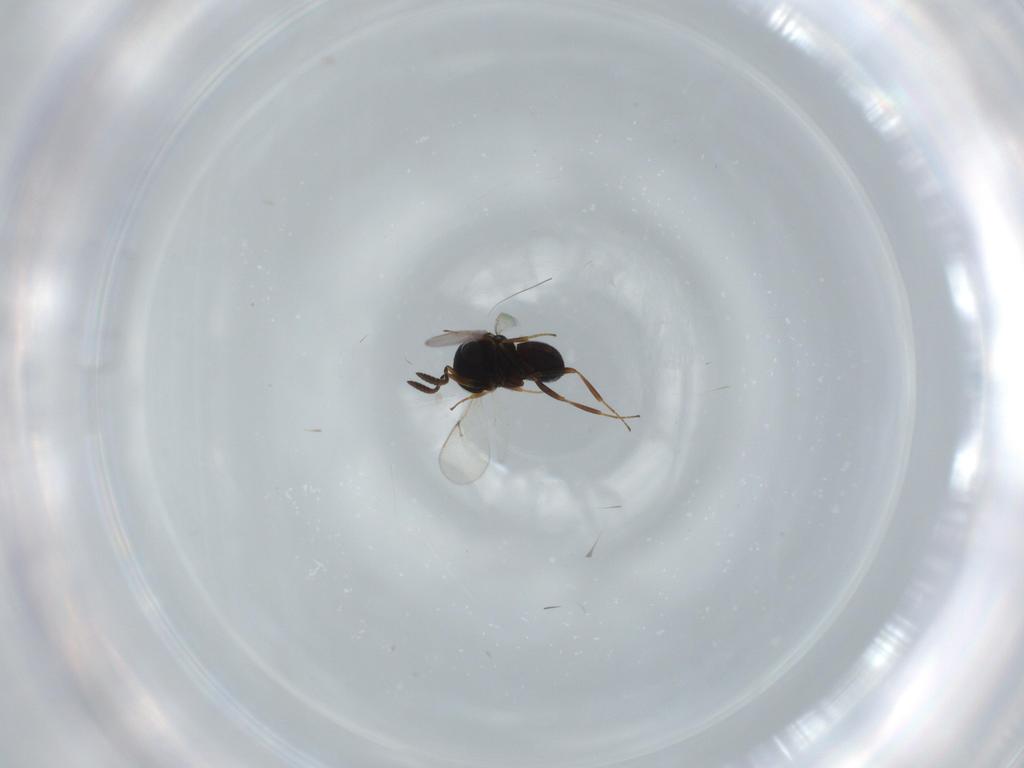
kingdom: Animalia
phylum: Arthropoda
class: Insecta
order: Hymenoptera
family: Scelionidae
